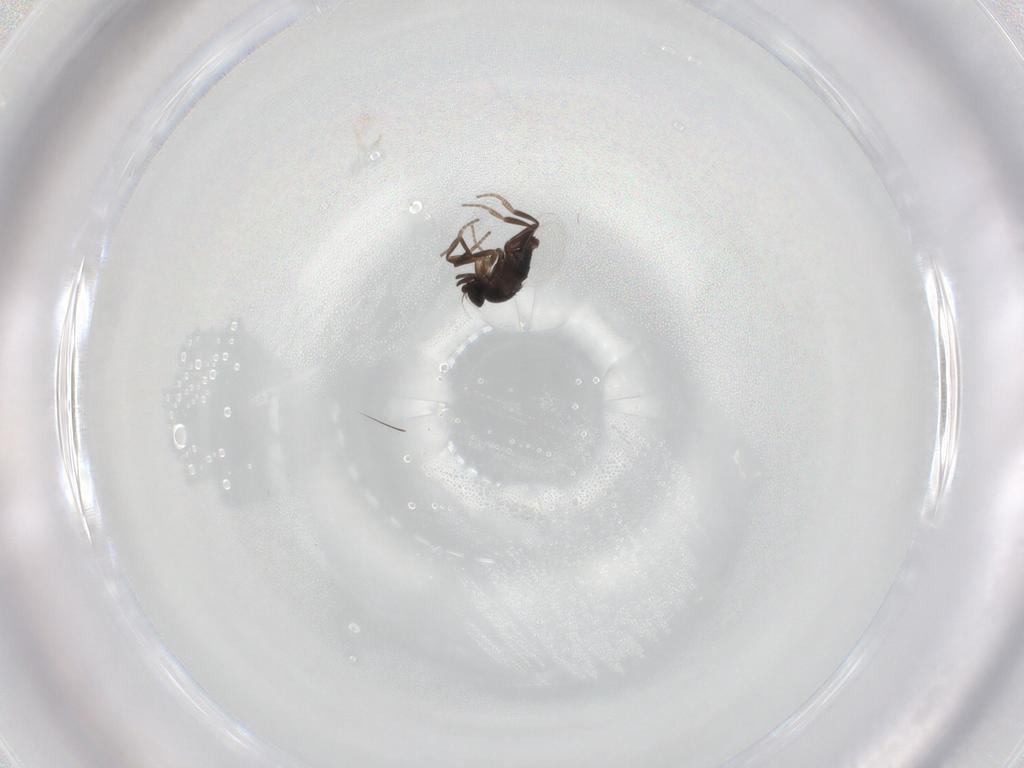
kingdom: Animalia
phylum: Arthropoda
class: Insecta
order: Diptera
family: Phoridae
